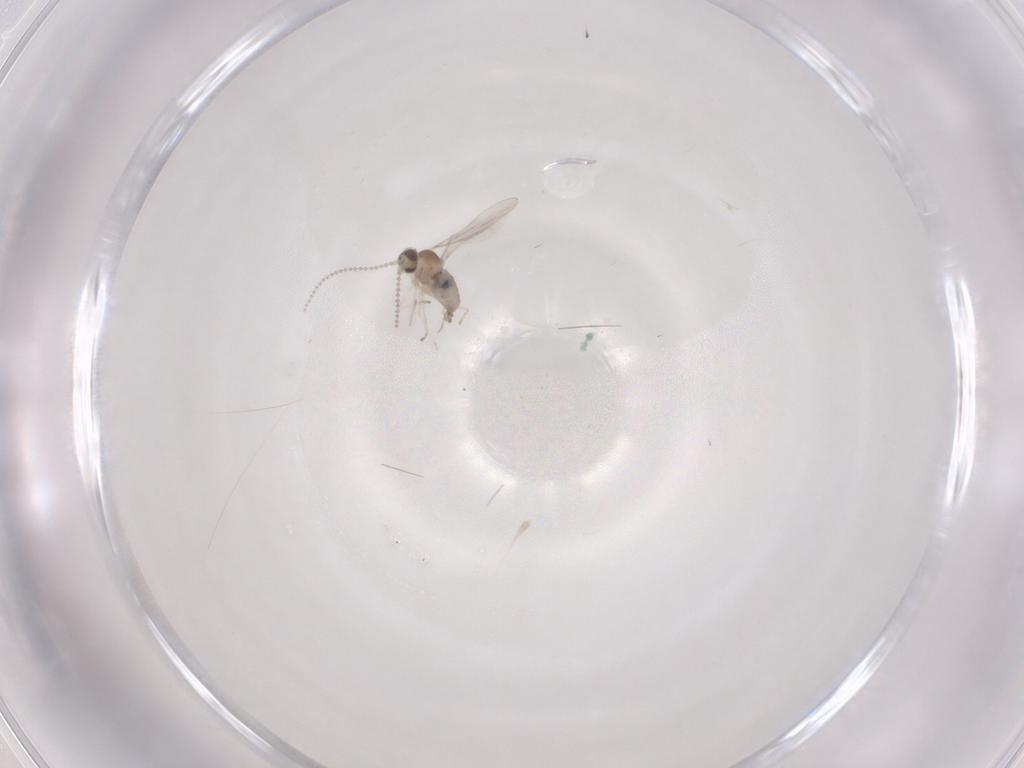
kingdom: Animalia
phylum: Arthropoda
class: Insecta
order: Diptera
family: Cecidomyiidae
